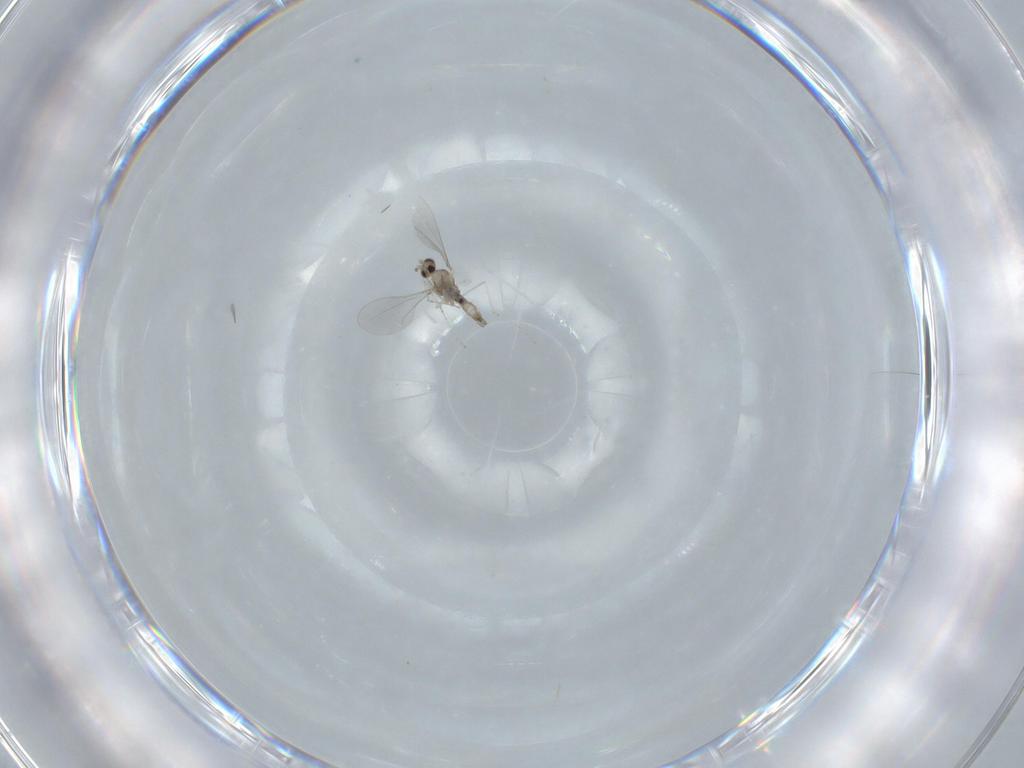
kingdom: Animalia
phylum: Arthropoda
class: Insecta
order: Diptera
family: Cecidomyiidae
